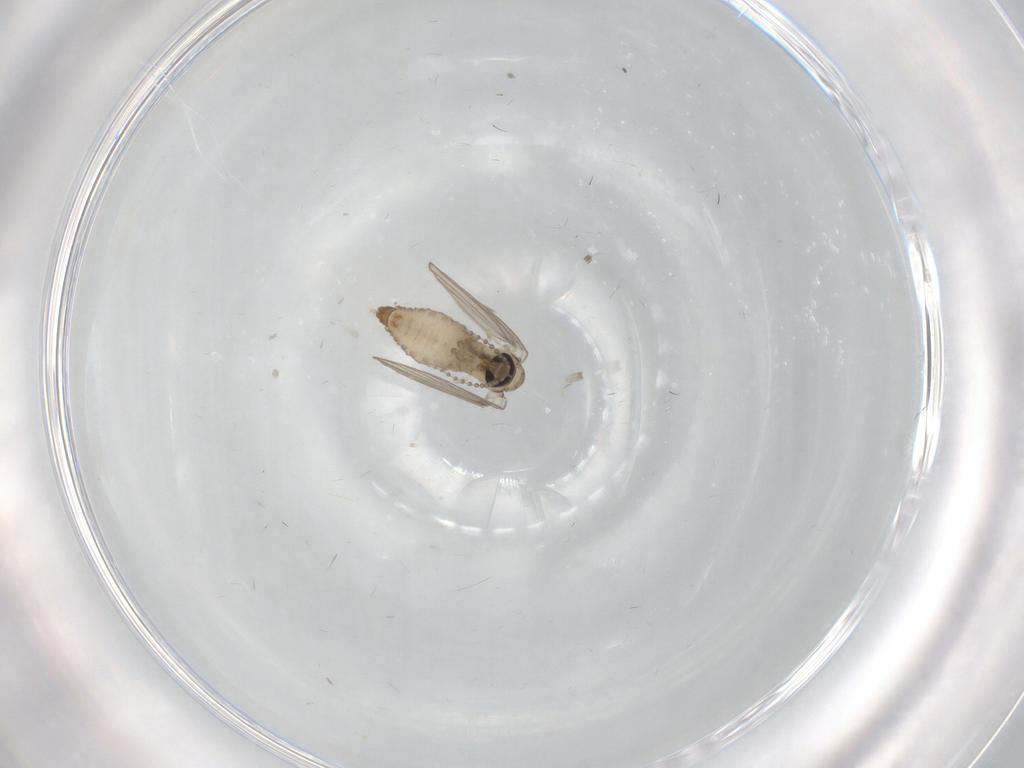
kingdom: Animalia
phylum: Arthropoda
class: Insecta
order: Diptera
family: Psychodidae
